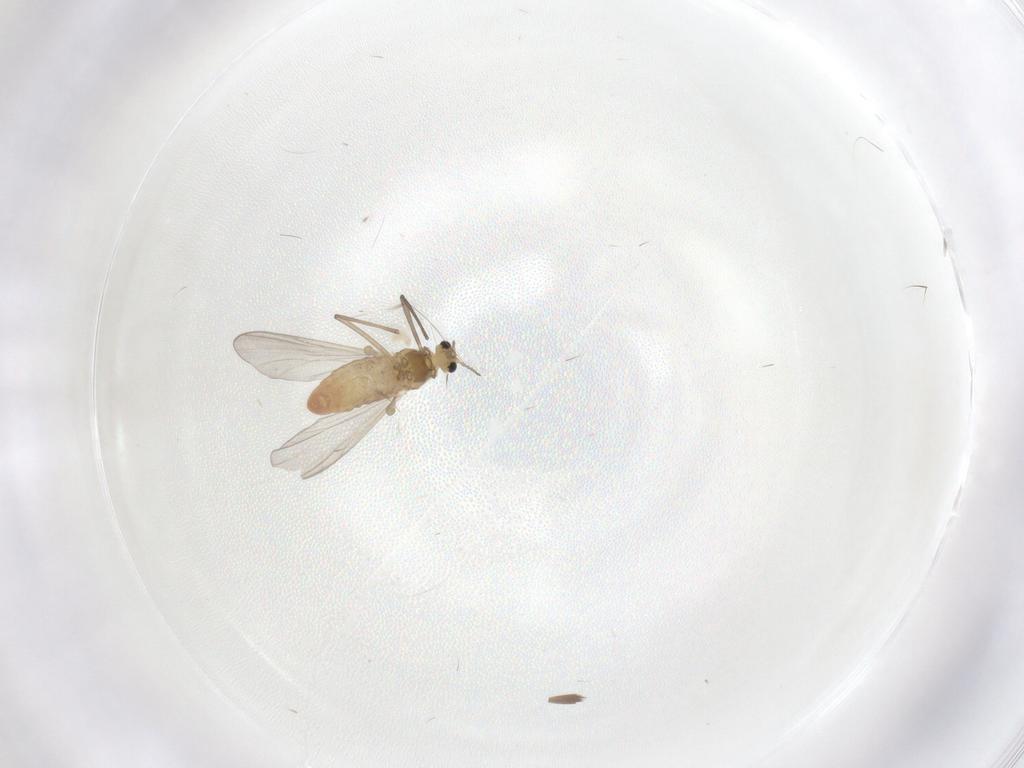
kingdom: Animalia
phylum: Arthropoda
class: Insecta
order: Diptera
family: Chironomidae
